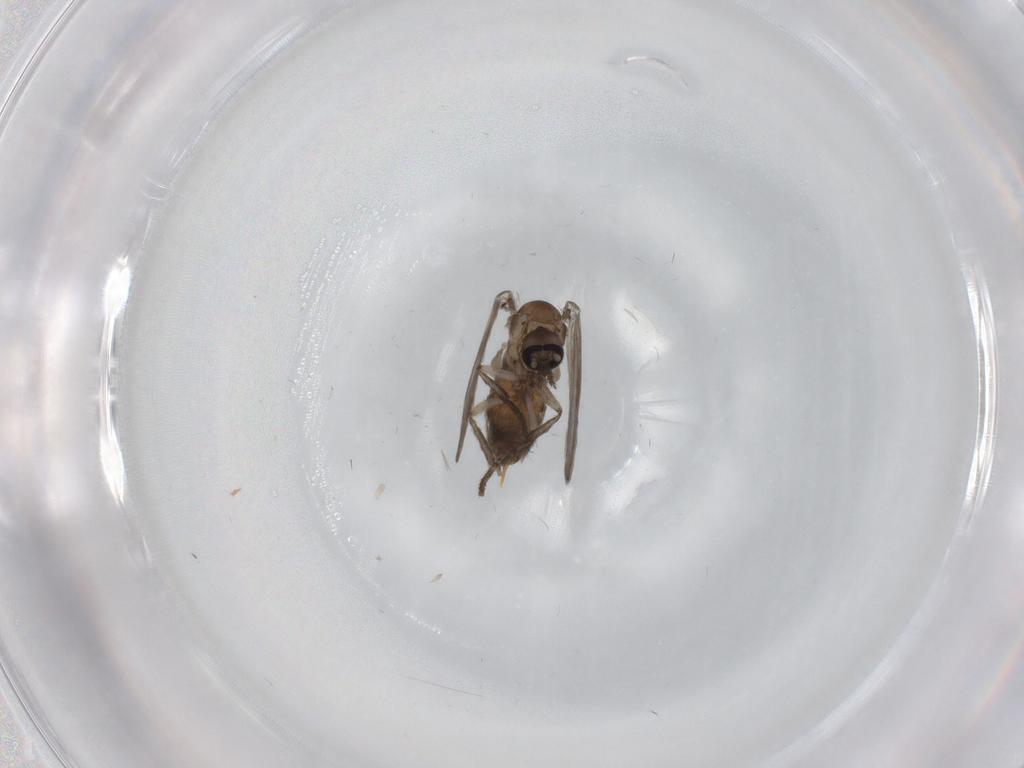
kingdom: Animalia
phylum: Arthropoda
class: Insecta
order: Diptera
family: Psychodidae
